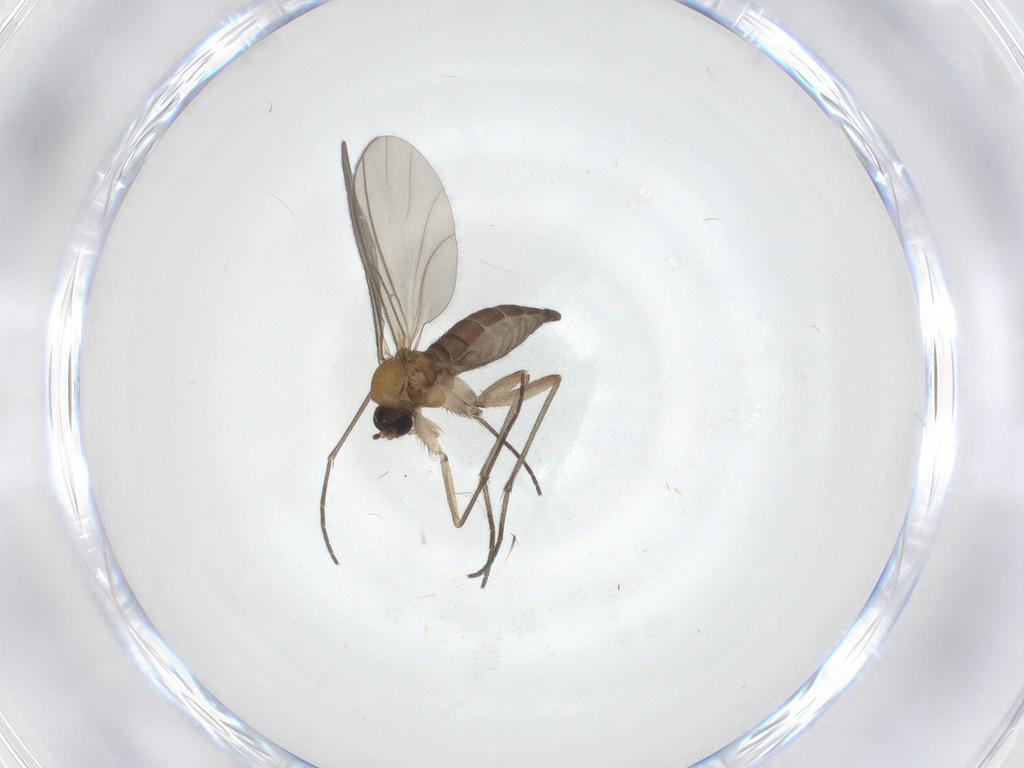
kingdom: Animalia
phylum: Arthropoda
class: Insecta
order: Diptera
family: Sciaridae
